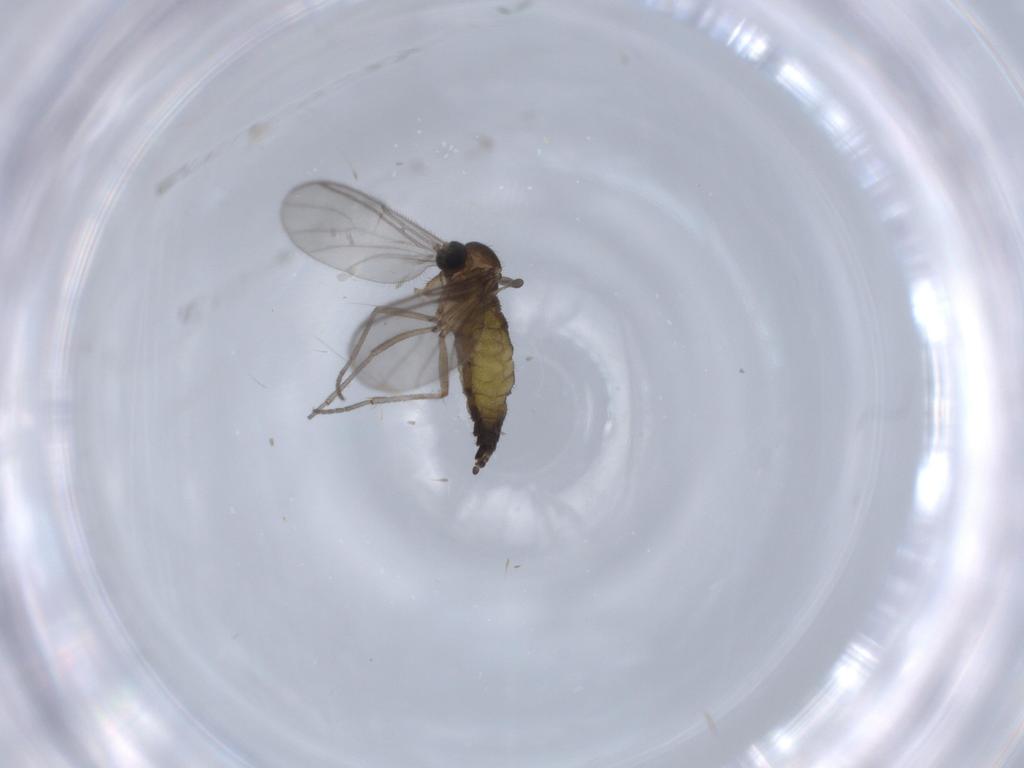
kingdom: Animalia
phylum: Arthropoda
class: Insecta
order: Diptera
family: Sciaridae
